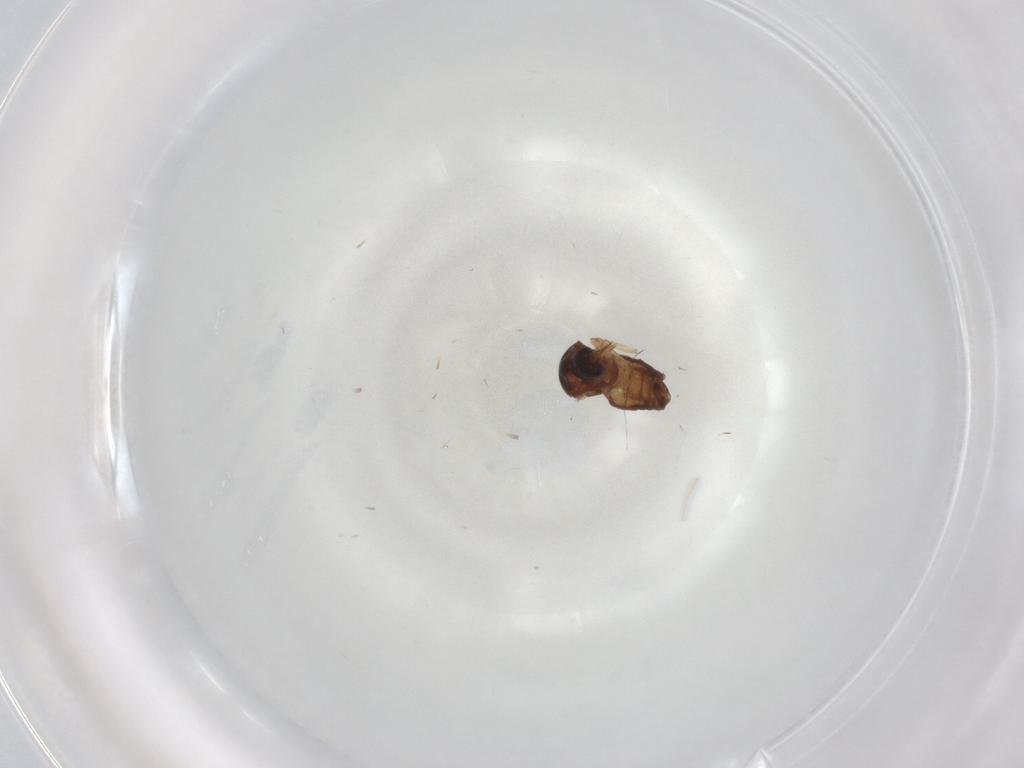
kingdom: Animalia
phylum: Arthropoda
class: Insecta
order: Diptera
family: Ceratopogonidae
